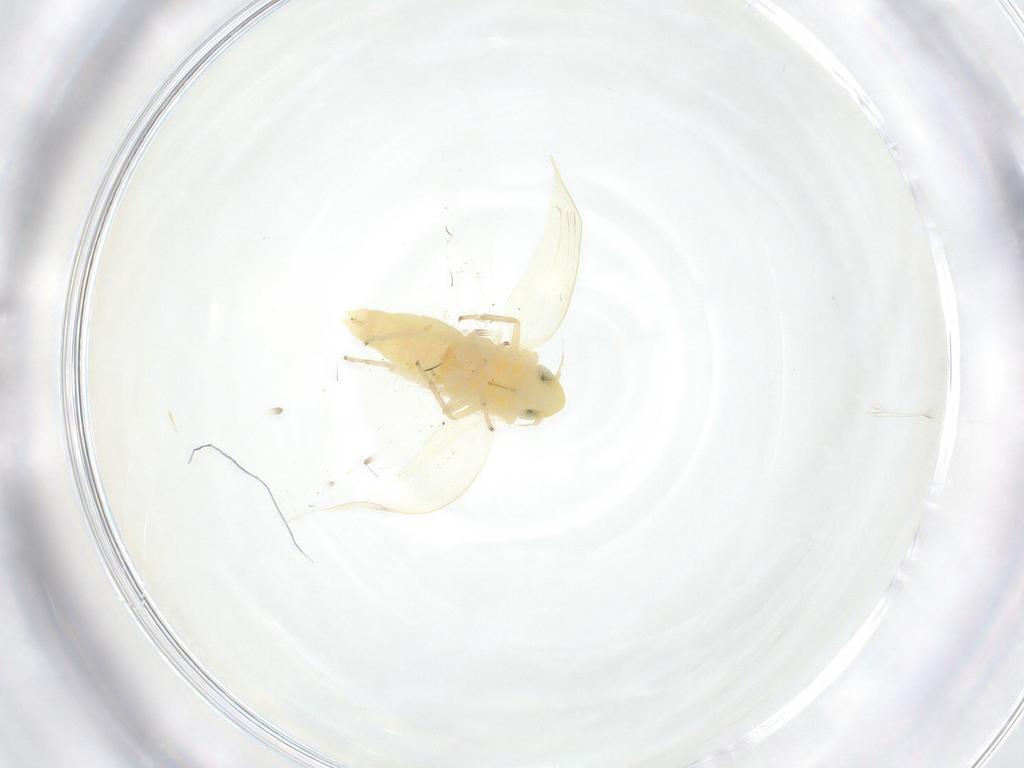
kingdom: Animalia
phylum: Arthropoda
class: Insecta
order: Hemiptera
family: Cicadellidae
